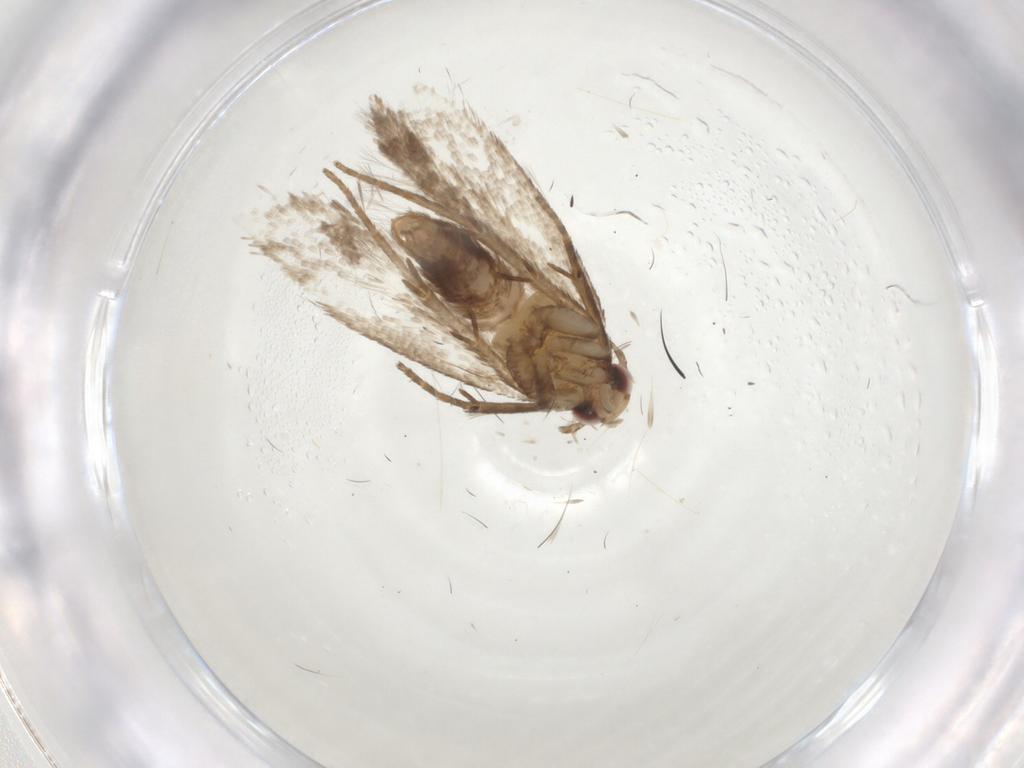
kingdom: Animalia
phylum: Arthropoda
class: Insecta
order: Lepidoptera
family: Gelechiidae
